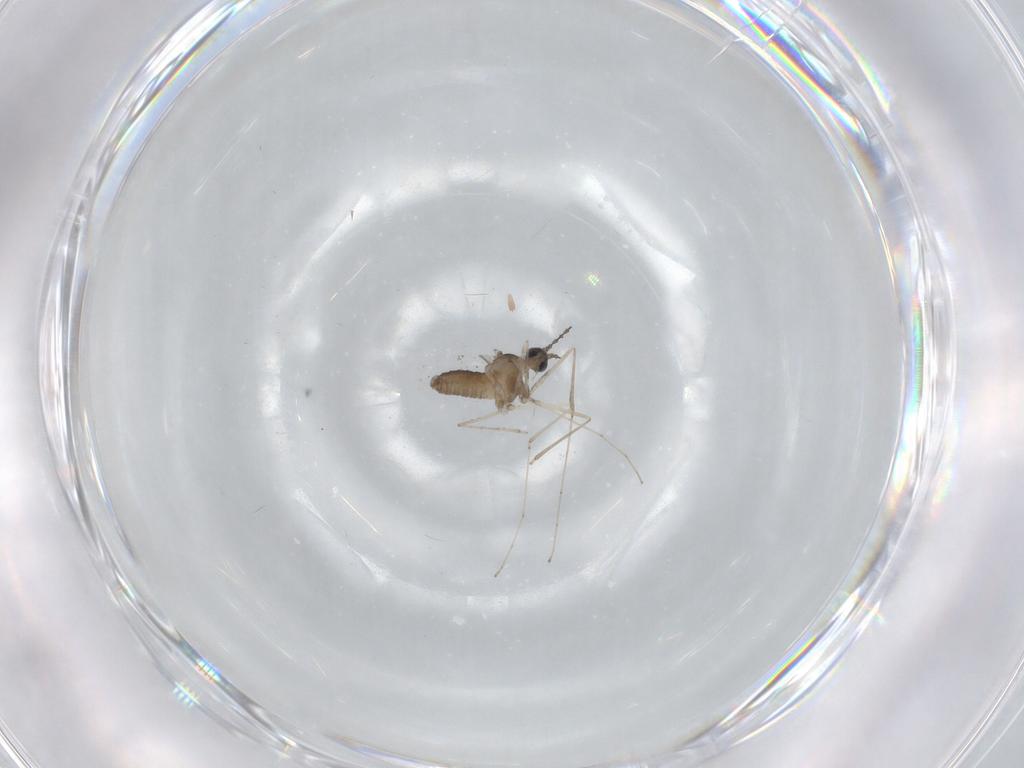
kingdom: Animalia
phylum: Arthropoda
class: Insecta
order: Diptera
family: Cecidomyiidae
